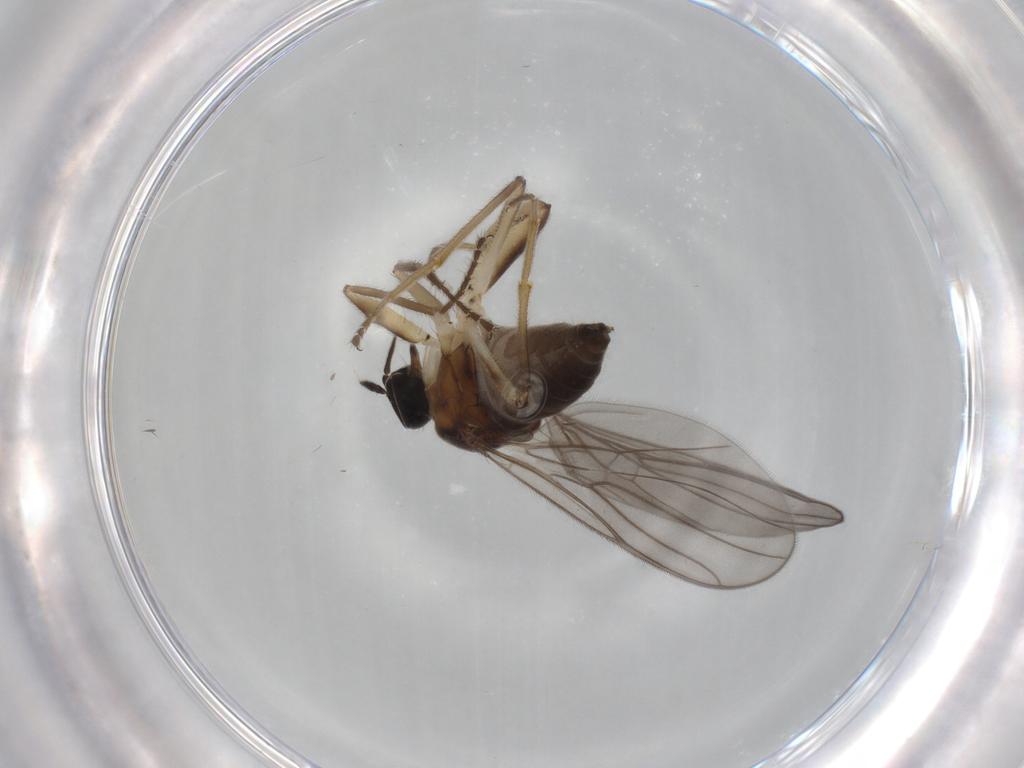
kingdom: Animalia
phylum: Arthropoda
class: Insecta
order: Diptera
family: Hybotidae
